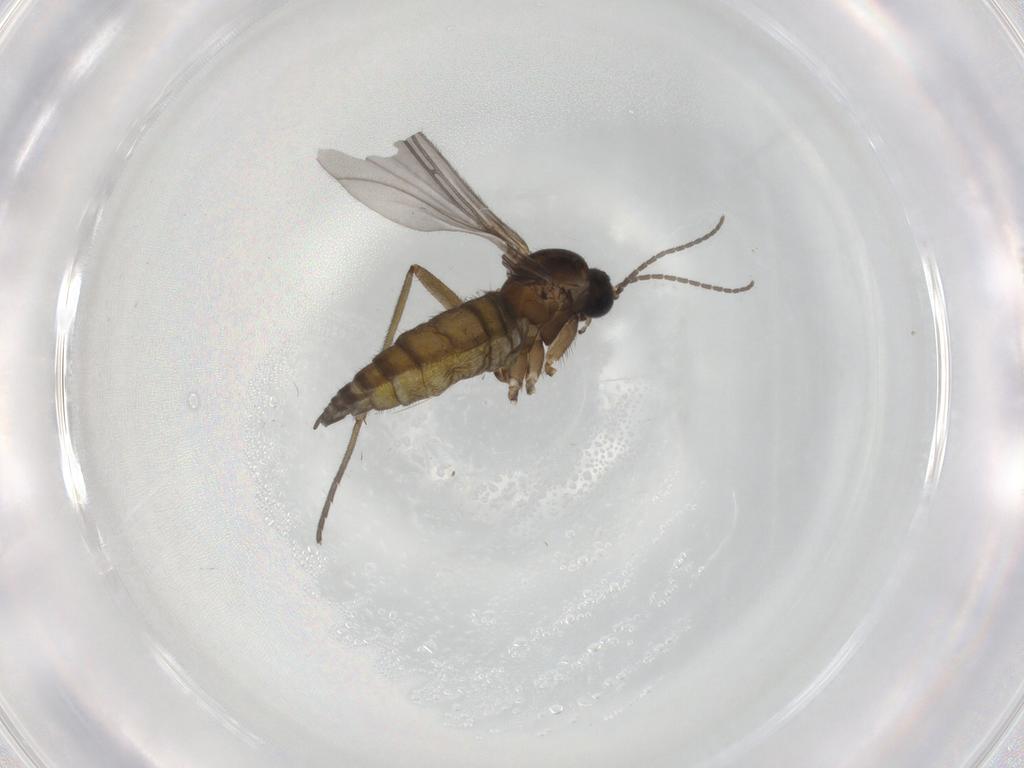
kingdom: Animalia
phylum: Arthropoda
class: Insecta
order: Diptera
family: Sciaridae
